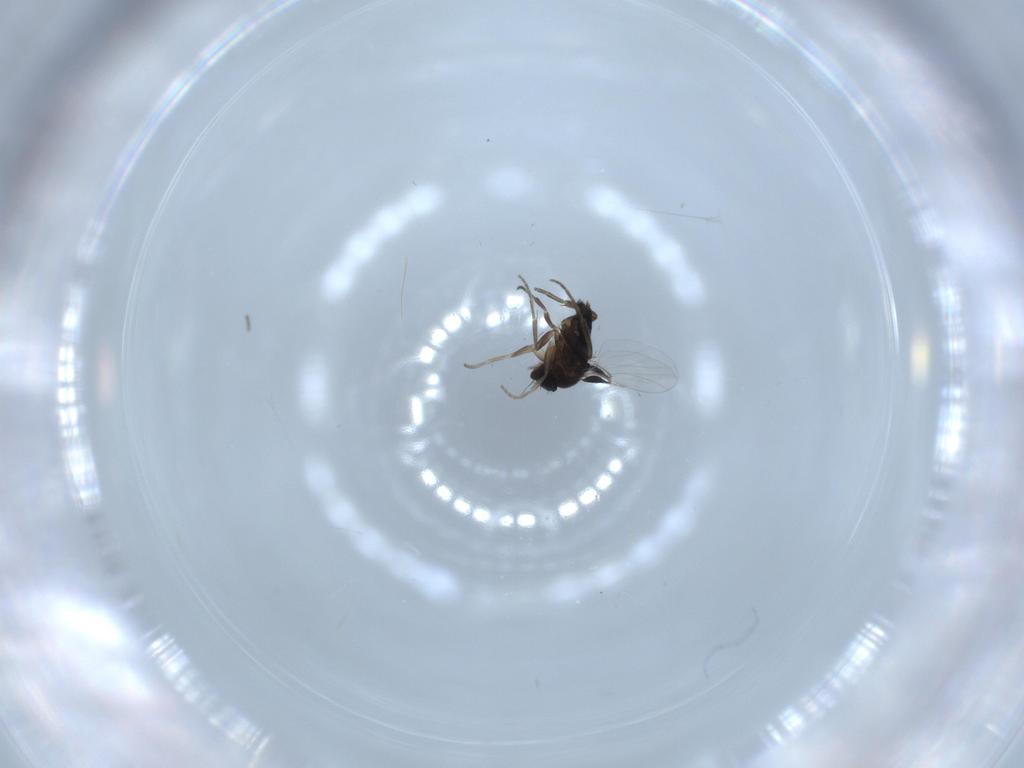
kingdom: Animalia
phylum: Arthropoda
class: Insecta
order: Diptera
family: Phoridae
